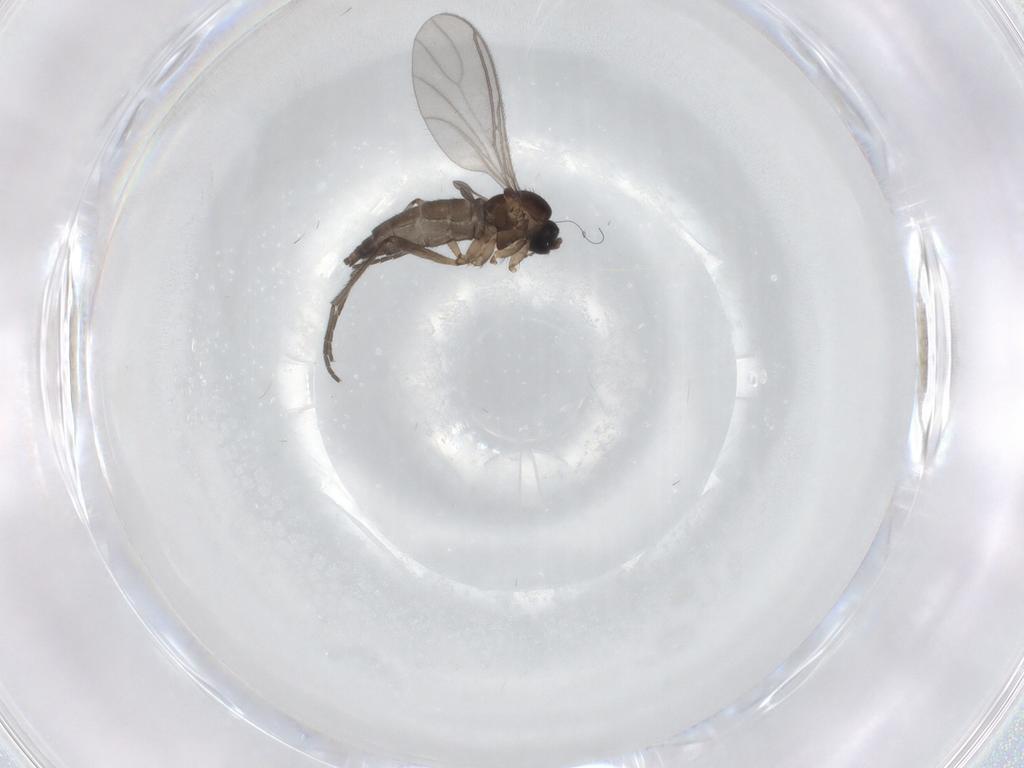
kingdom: Animalia
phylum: Arthropoda
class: Insecta
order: Diptera
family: Sciaridae
